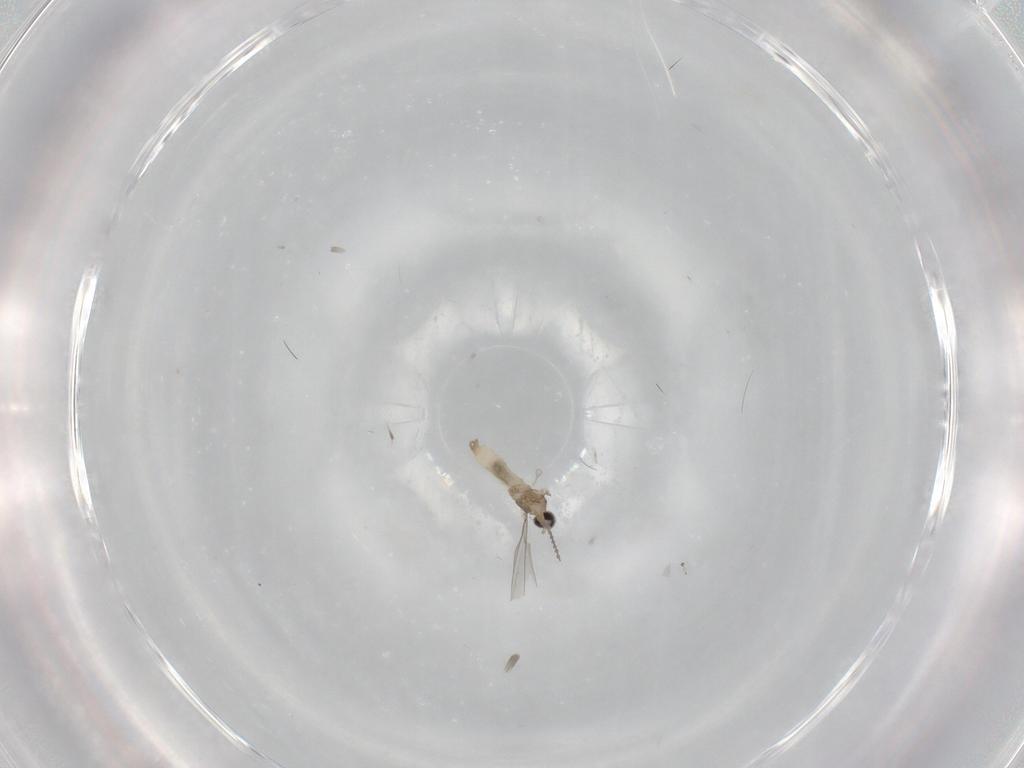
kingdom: Animalia
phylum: Arthropoda
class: Insecta
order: Diptera
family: Cecidomyiidae
